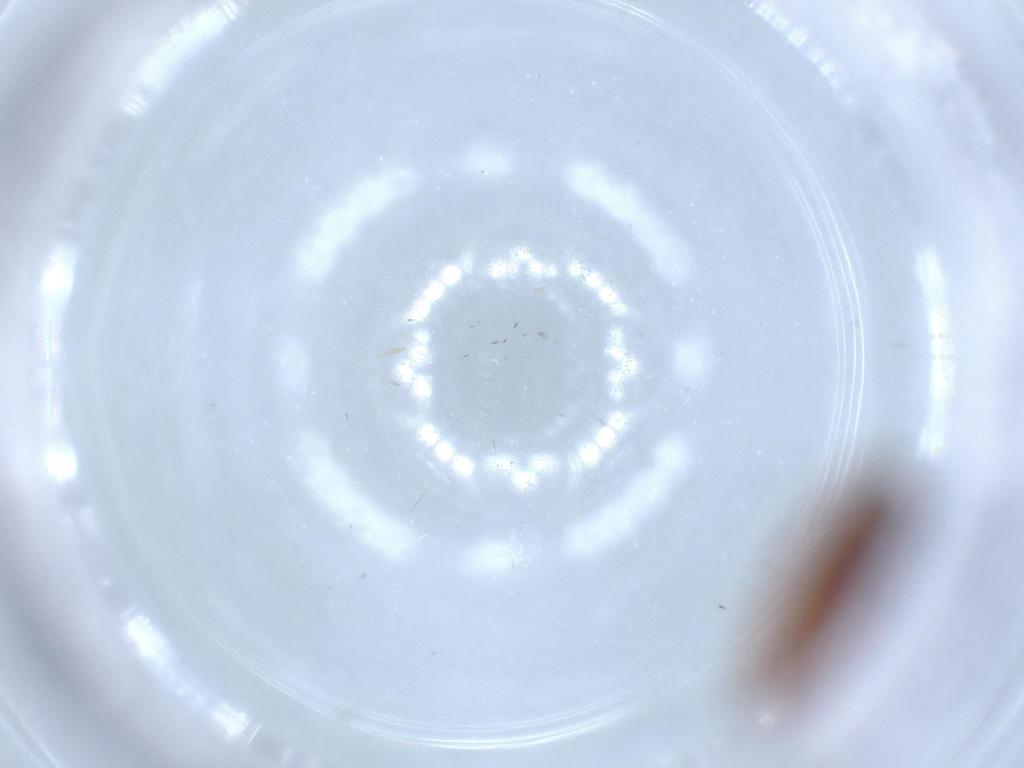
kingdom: Animalia
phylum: Arthropoda
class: Insecta
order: Coleoptera
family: Throscidae
